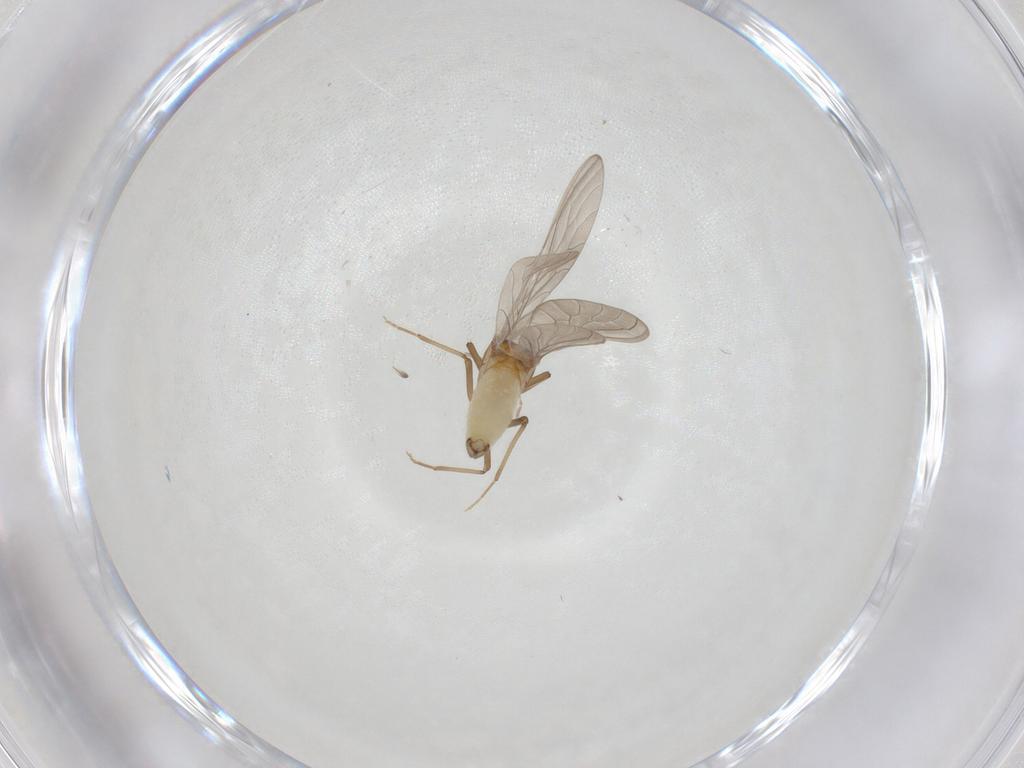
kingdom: Animalia
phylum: Arthropoda
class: Insecta
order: Neuroptera
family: Coniopterygidae
